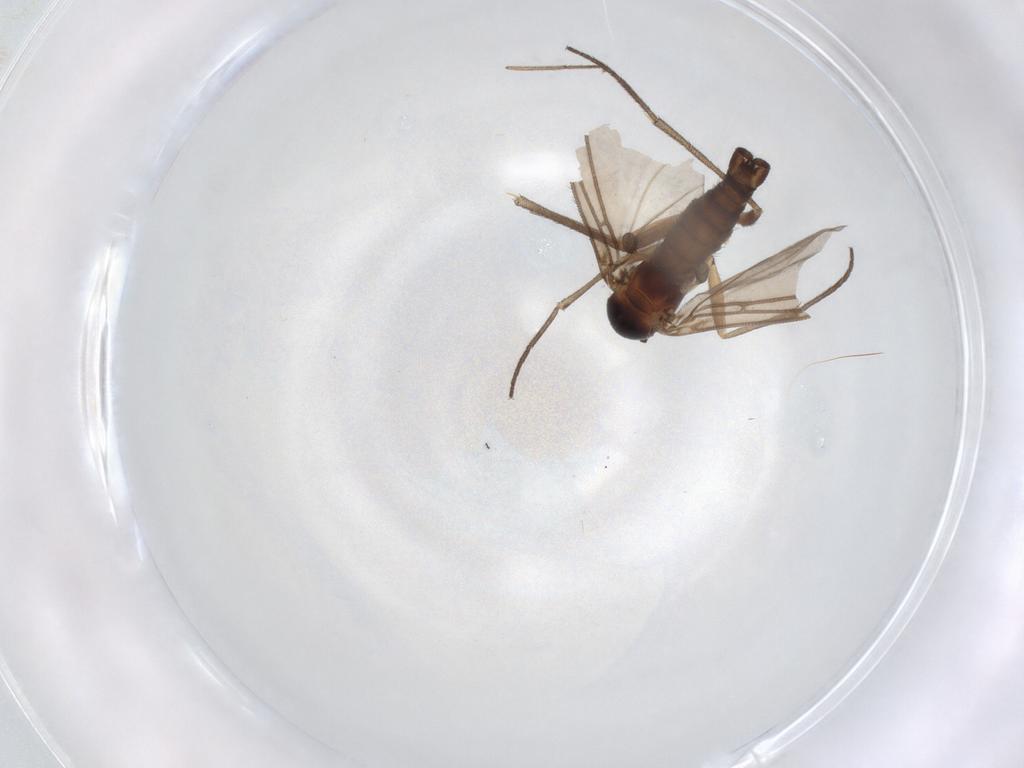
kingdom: Animalia
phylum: Arthropoda
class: Insecta
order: Diptera
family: Sciaridae
